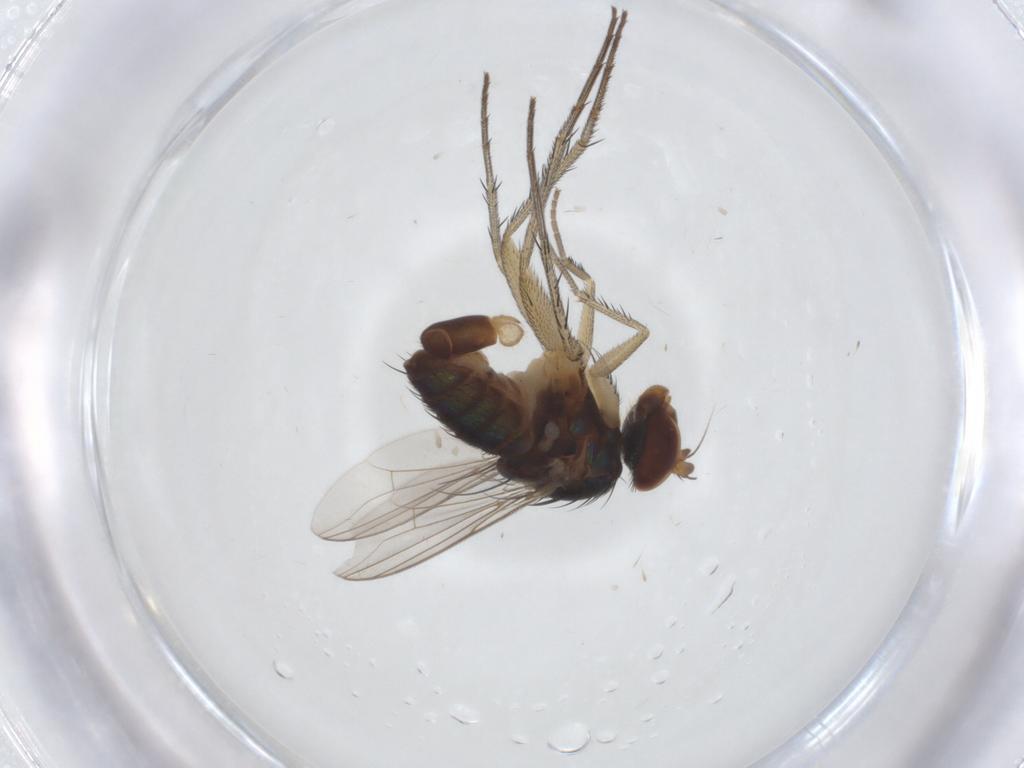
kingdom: Animalia
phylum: Arthropoda
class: Insecta
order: Diptera
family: Dolichopodidae
